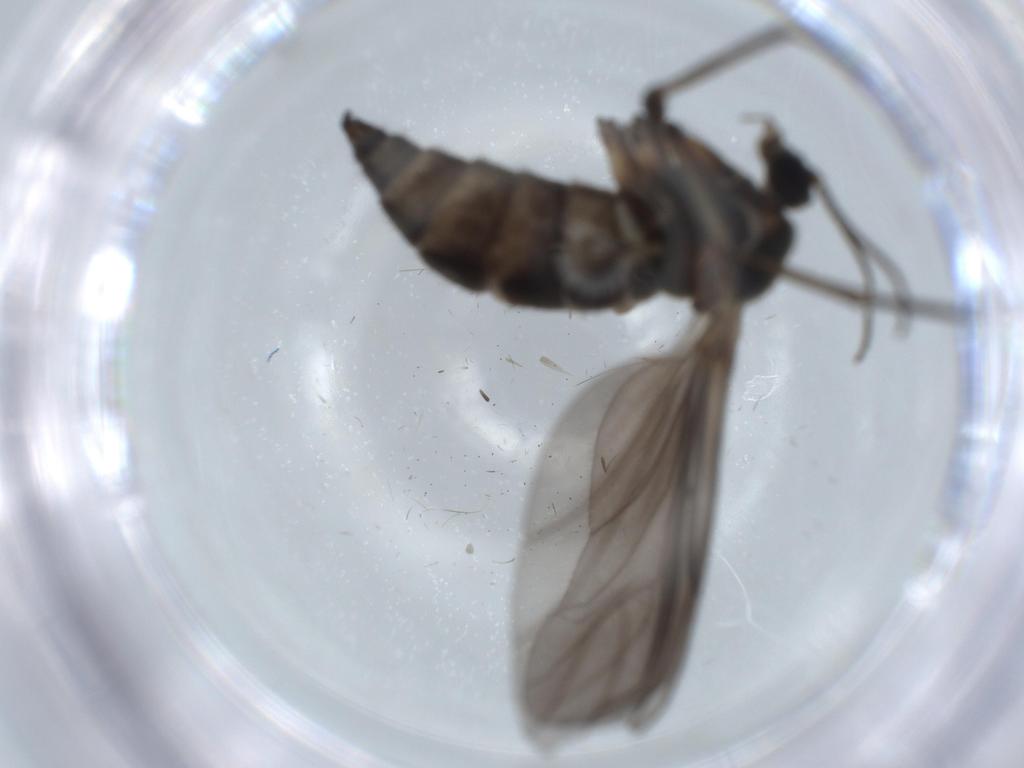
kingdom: Animalia
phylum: Arthropoda
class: Insecta
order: Diptera
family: Sciaridae
